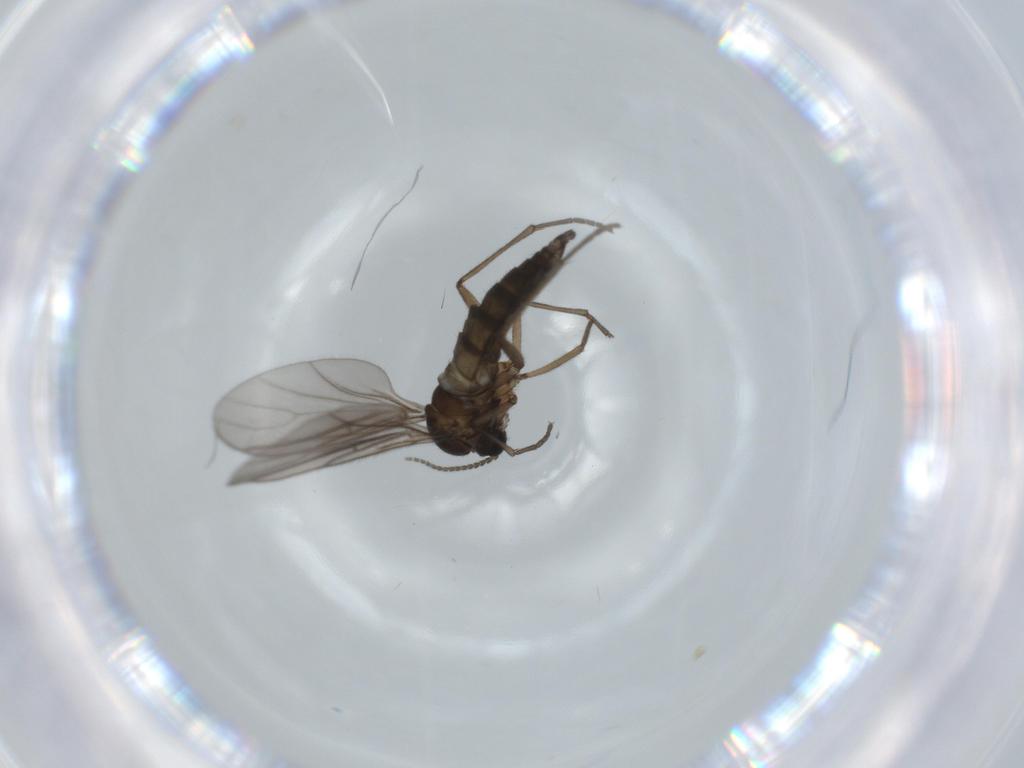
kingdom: Animalia
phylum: Arthropoda
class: Insecta
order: Diptera
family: Sciaridae
